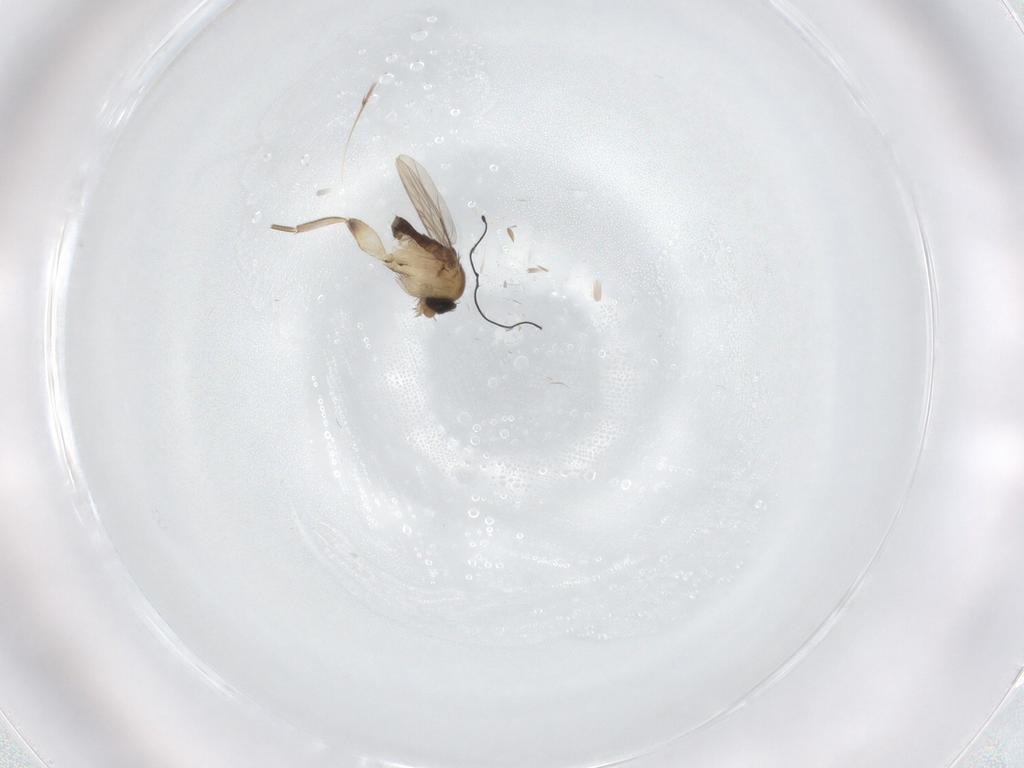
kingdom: Animalia
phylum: Arthropoda
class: Insecta
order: Diptera
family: Phoridae
